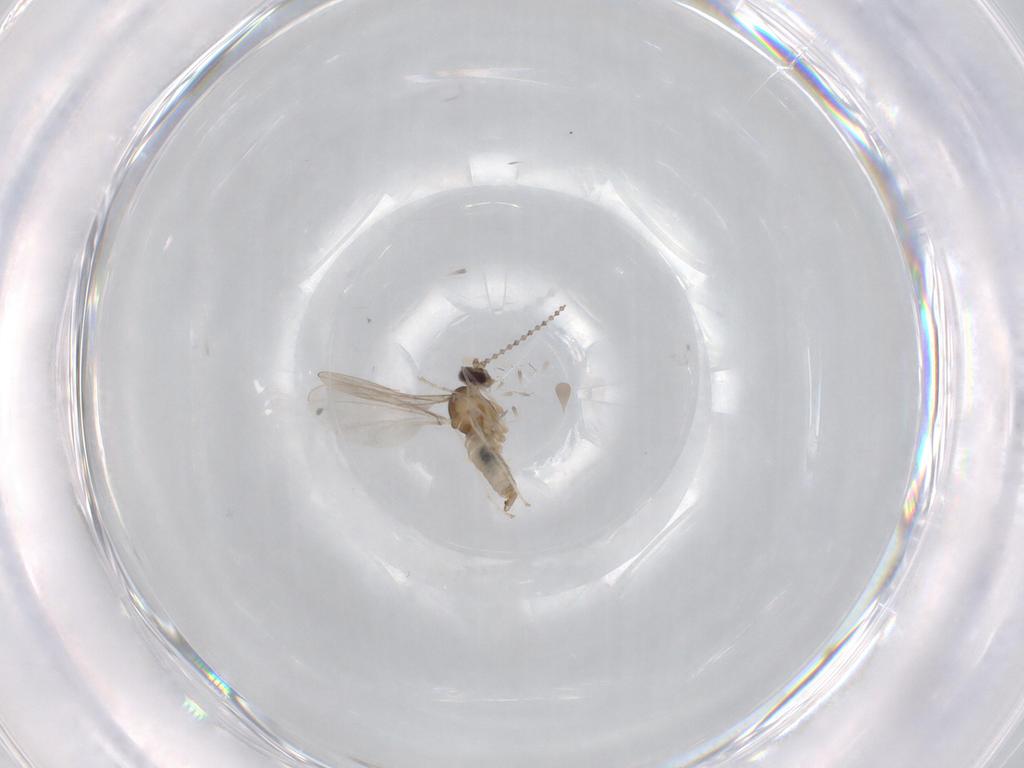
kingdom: Animalia
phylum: Arthropoda
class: Insecta
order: Diptera
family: Cecidomyiidae
